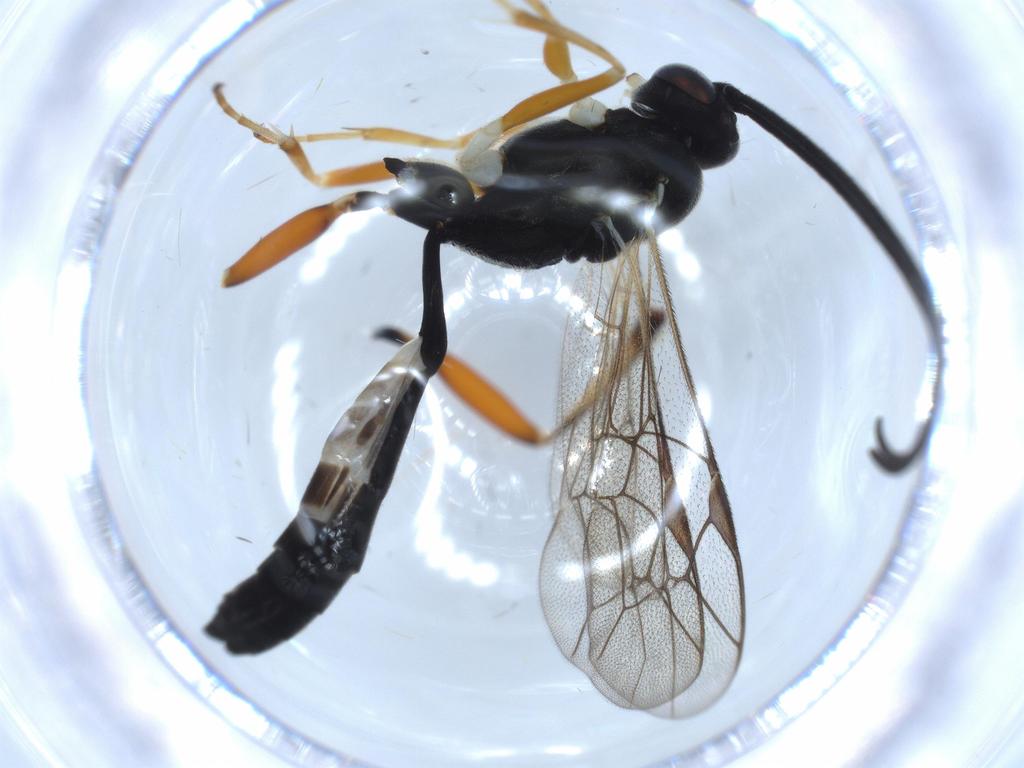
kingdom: Animalia
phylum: Arthropoda
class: Insecta
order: Hymenoptera
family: Ichneumonidae
